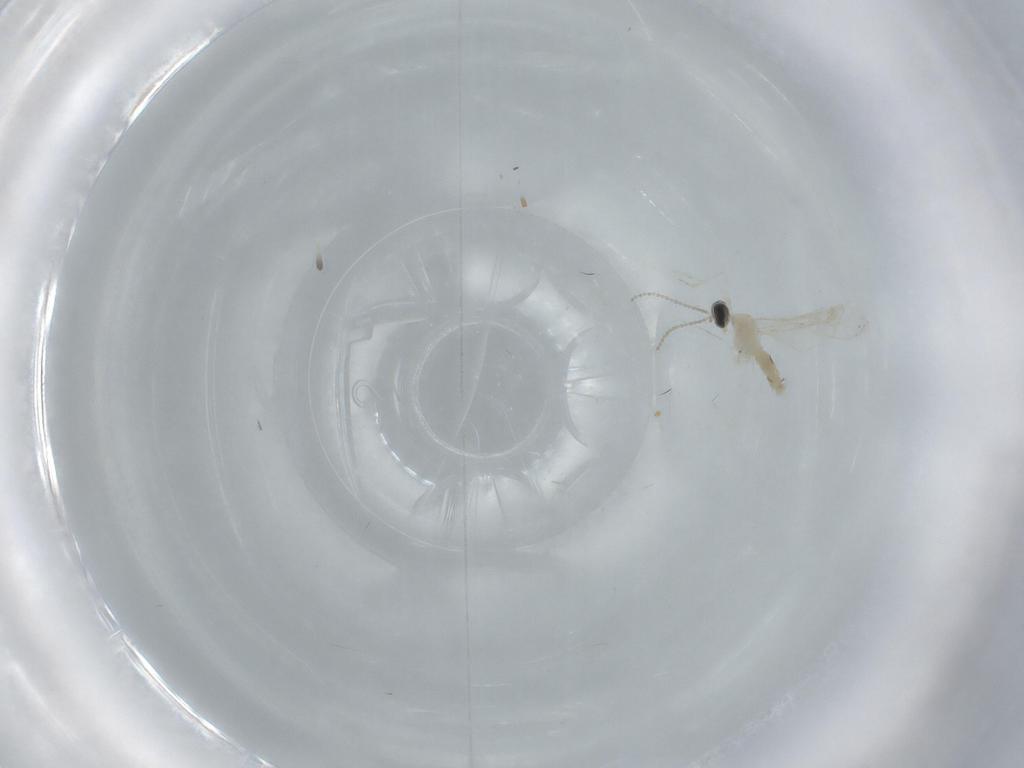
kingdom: Animalia
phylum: Arthropoda
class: Insecta
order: Diptera
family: Cecidomyiidae
